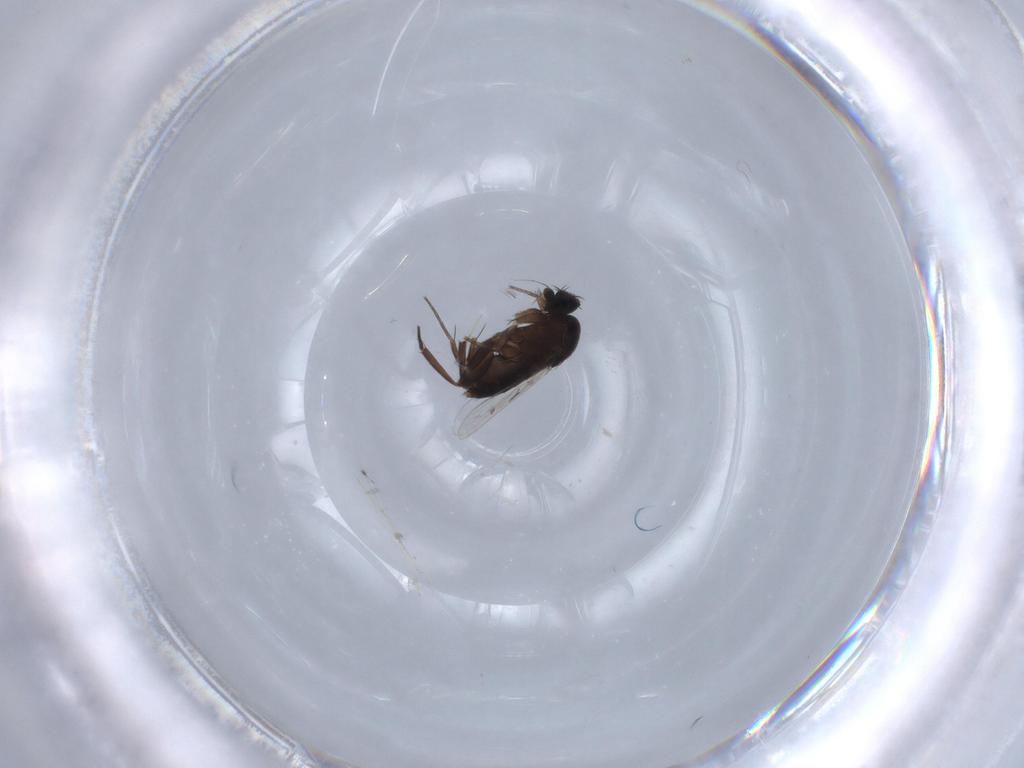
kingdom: Animalia
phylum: Arthropoda
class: Insecta
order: Diptera
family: Phoridae
